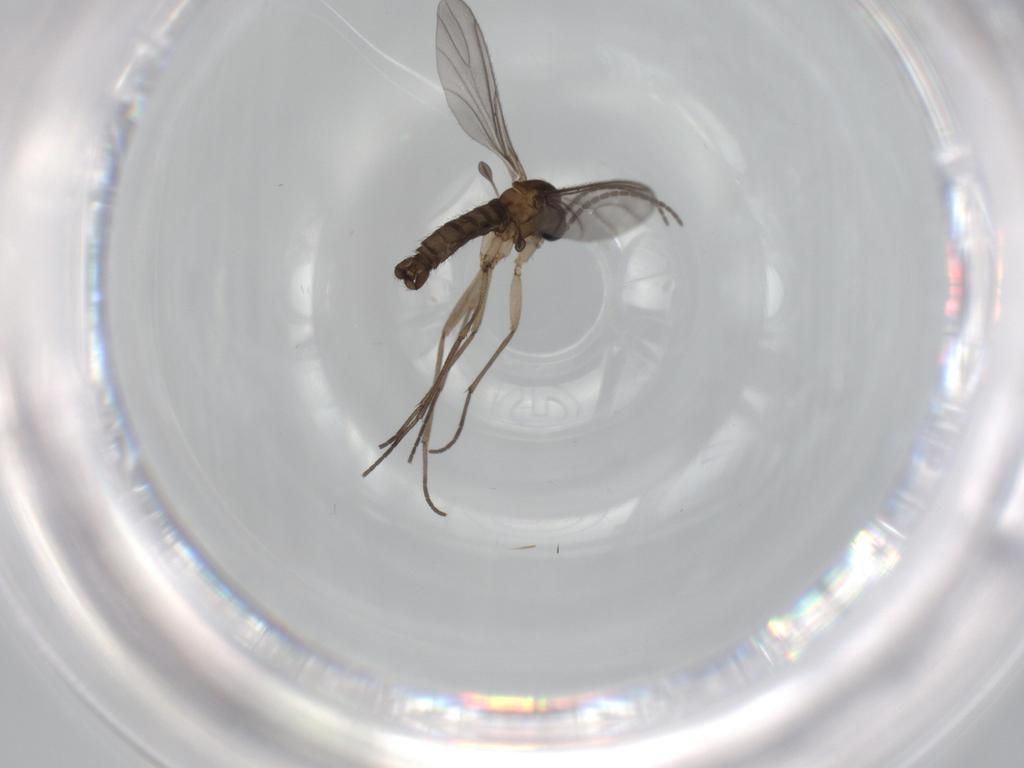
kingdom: Animalia
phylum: Arthropoda
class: Insecta
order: Diptera
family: Sciaridae
